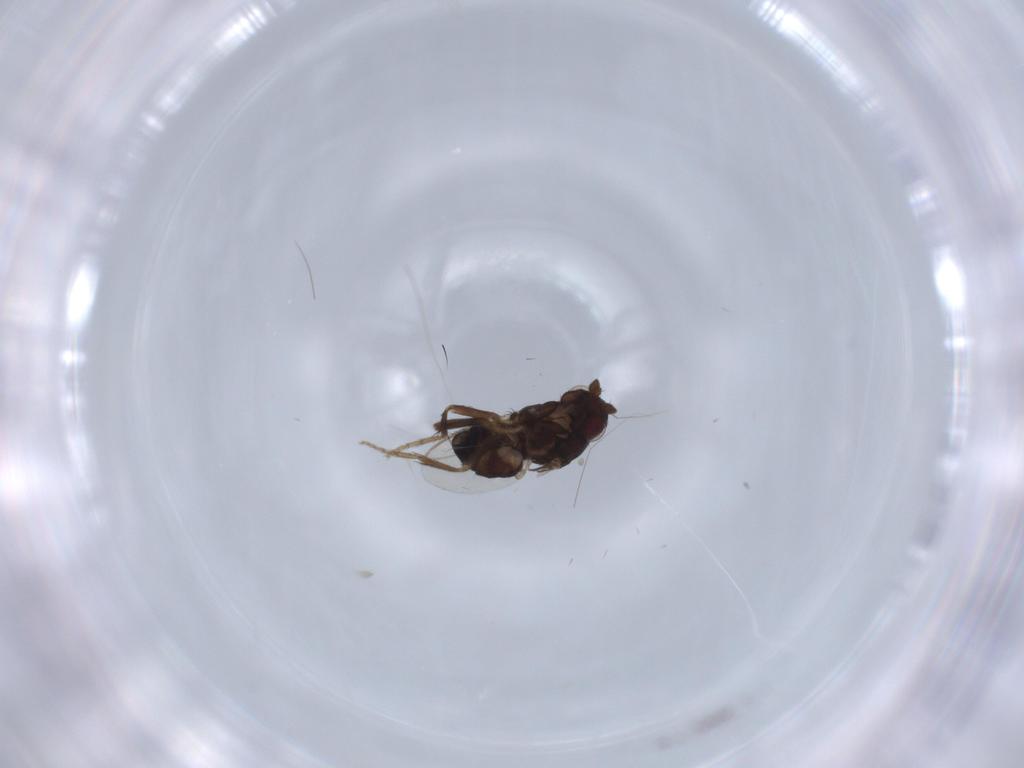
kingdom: Animalia
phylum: Arthropoda
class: Insecta
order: Diptera
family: Sphaeroceridae
